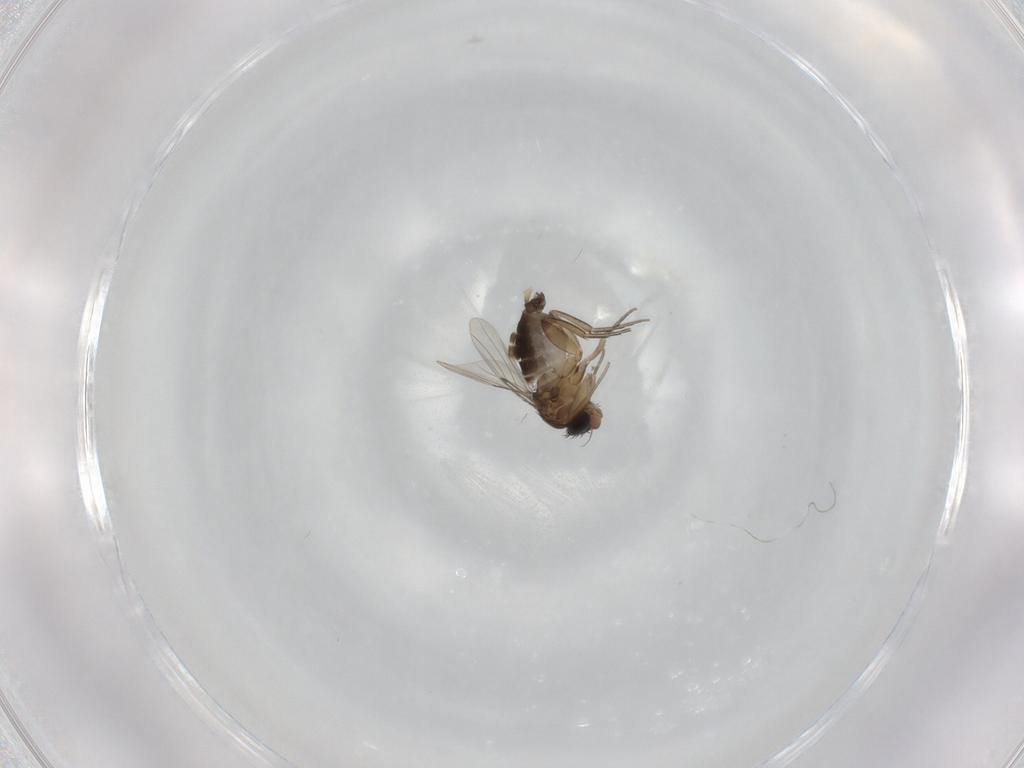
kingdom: Animalia
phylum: Arthropoda
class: Insecta
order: Diptera
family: Phoridae
